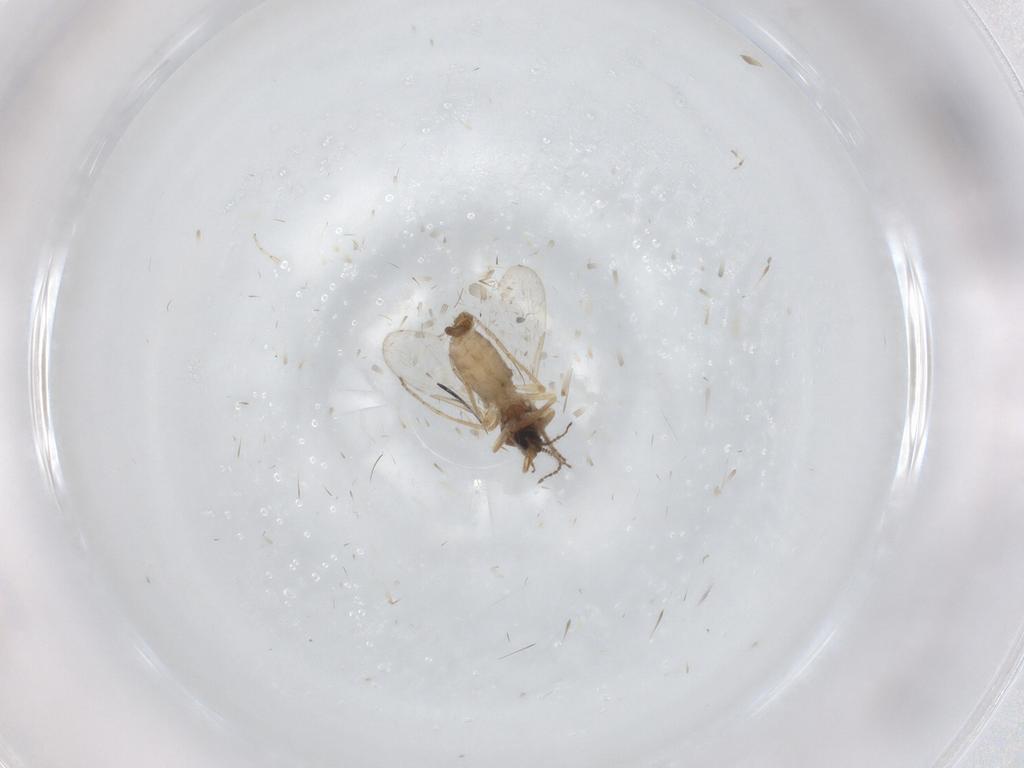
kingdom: Animalia
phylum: Arthropoda
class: Insecta
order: Diptera
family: Ceratopogonidae
